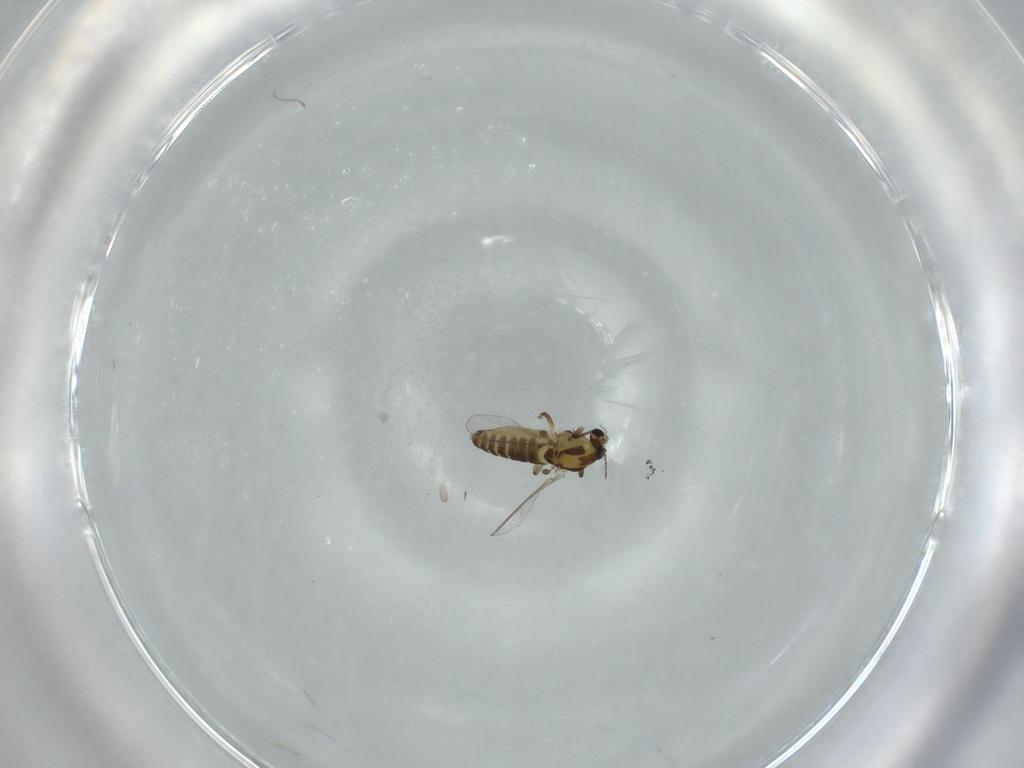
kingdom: Animalia
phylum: Arthropoda
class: Insecta
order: Diptera
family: Chironomidae
